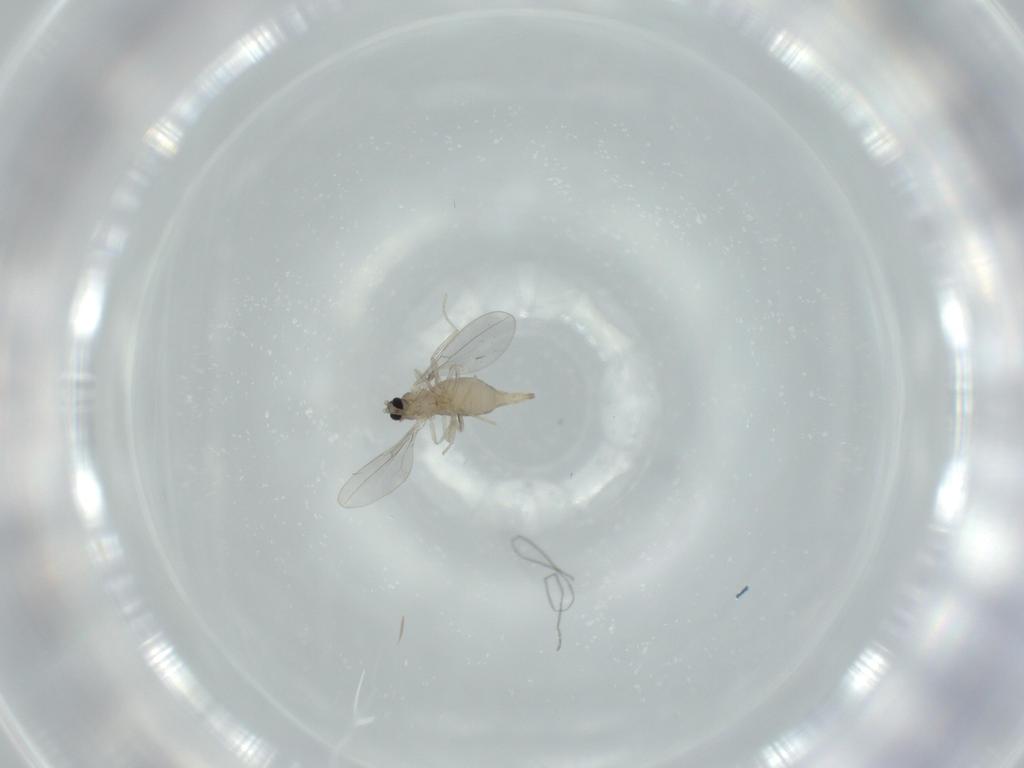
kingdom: Animalia
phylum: Arthropoda
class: Insecta
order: Diptera
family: Cecidomyiidae
